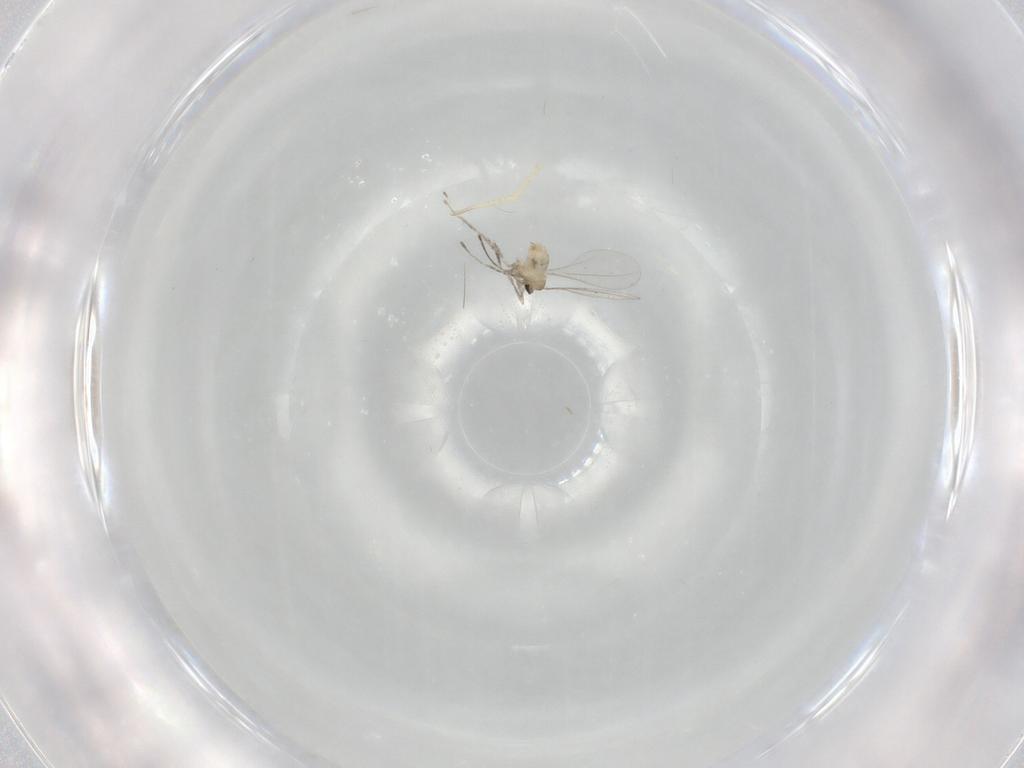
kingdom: Animalia
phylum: Arthropoda
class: Insecta
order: Diptera
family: Cecidomyiidae
